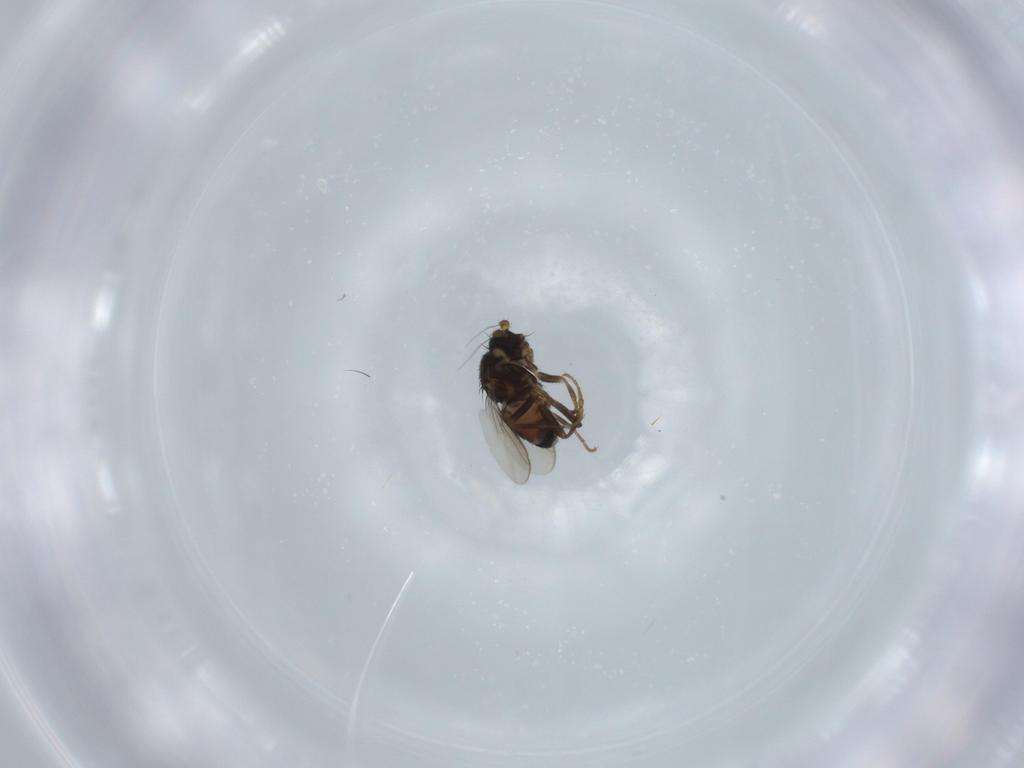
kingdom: Animalia
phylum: Arthropoda
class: Insecta
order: Diptera
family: Sphaeroceridae
